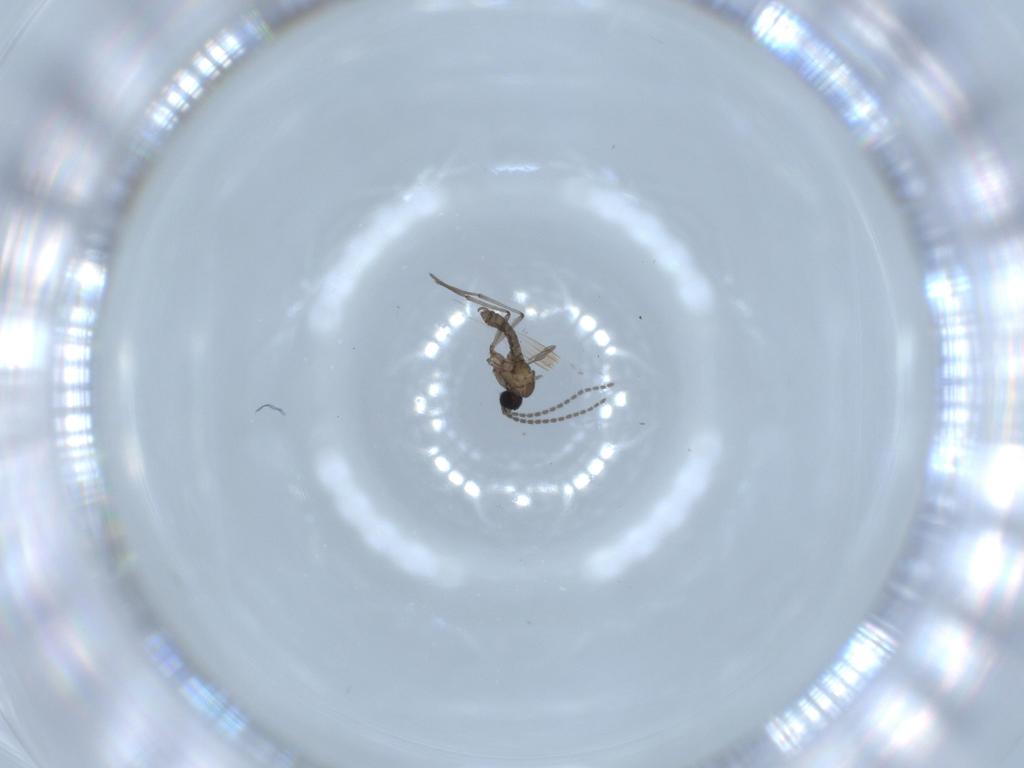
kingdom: Animalia
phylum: Arthropoda
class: Insecta
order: Diptera
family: Sciaridae
